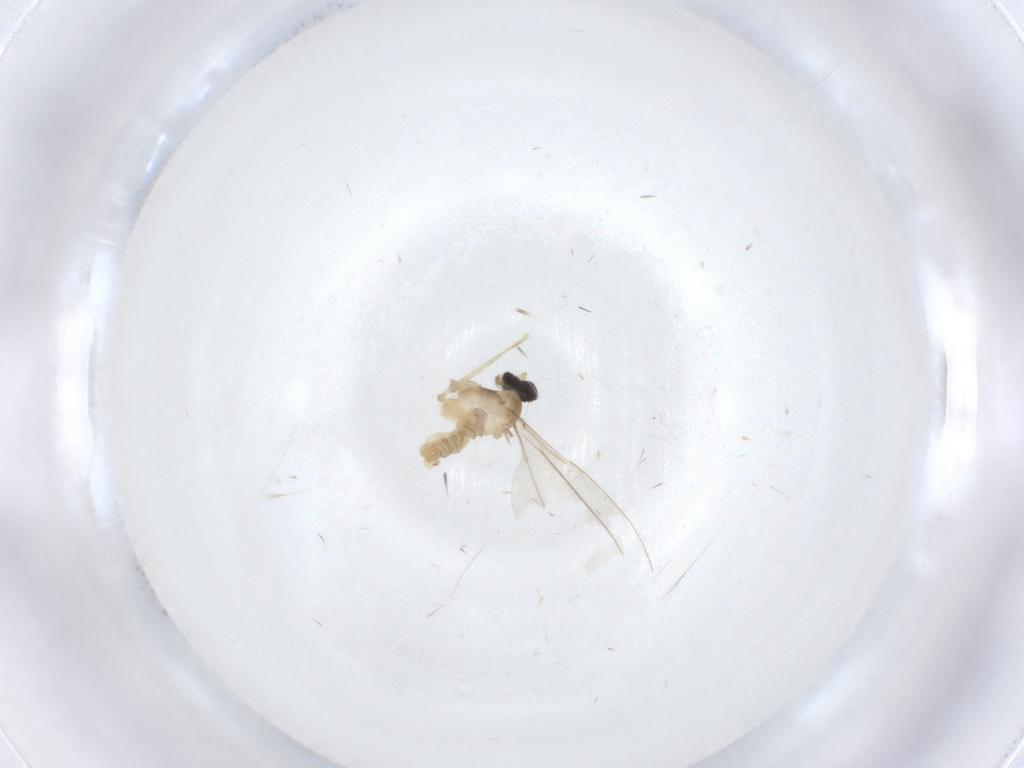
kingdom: Animalia
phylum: Arthropoda
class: Insecta
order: Diptera
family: Cecidomyiidae
